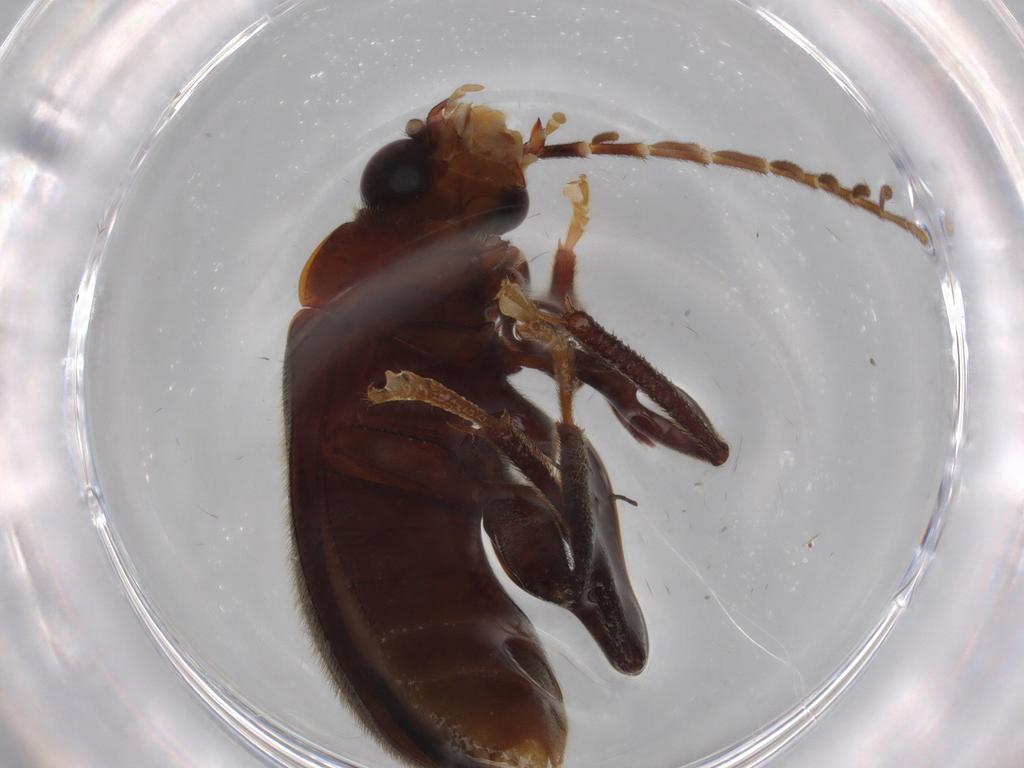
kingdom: Animalia
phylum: Arthropoda
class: Insecta
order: Coleoptera
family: Ptilodactylidae
